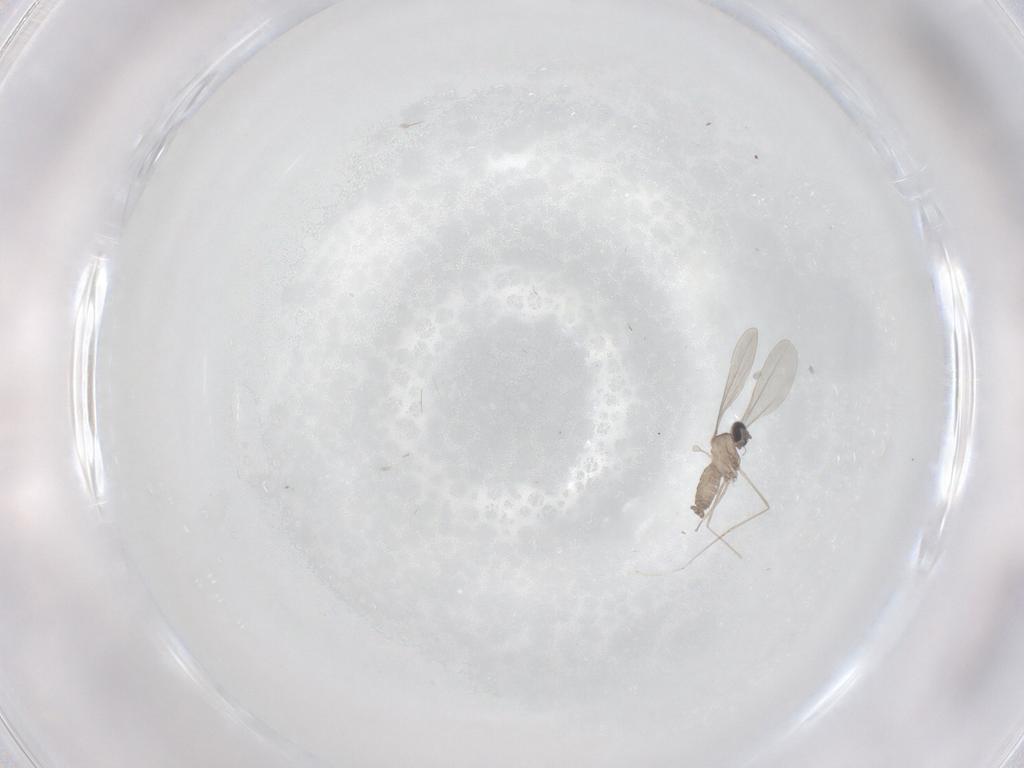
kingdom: Animalia
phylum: Arthropoda
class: Insecta
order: Diptera
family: Cecidomyiidae
